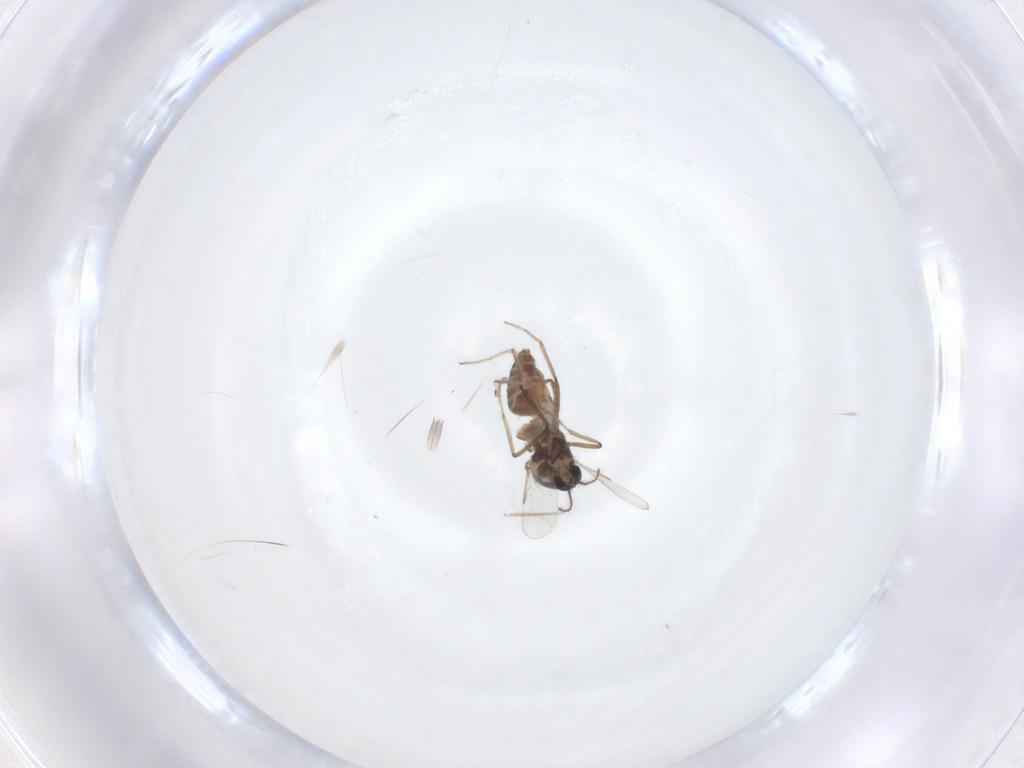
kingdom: Animalia
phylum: Arthropoda
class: Insecta
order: Diptera
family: Ceratopogonidae
